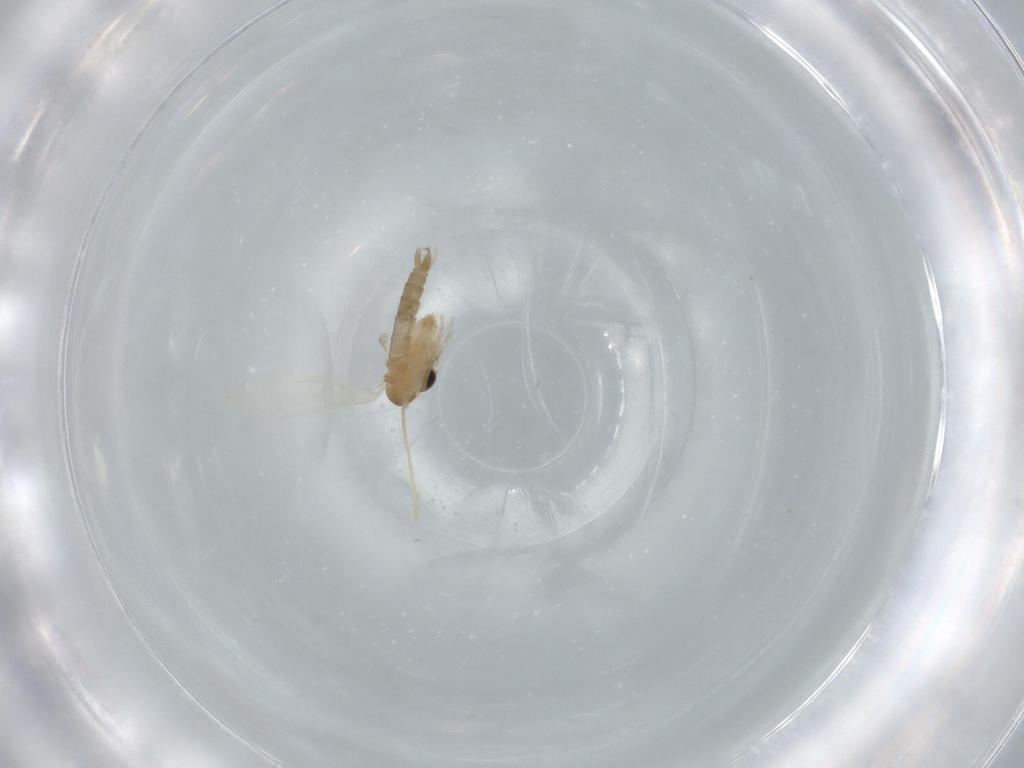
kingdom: Animalia
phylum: Arthropoda
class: Insecta
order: Diptera
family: Psychodidae
